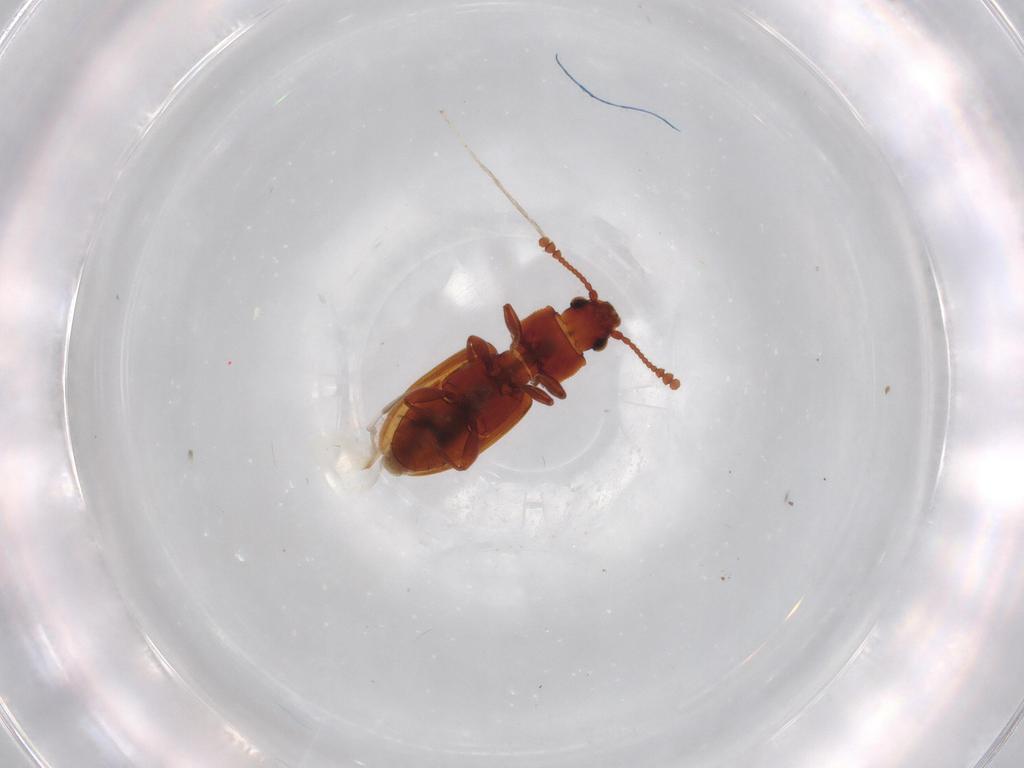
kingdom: Animalia
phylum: Arthropoda
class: Insecta
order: Coleoptera
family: Silvanidae
